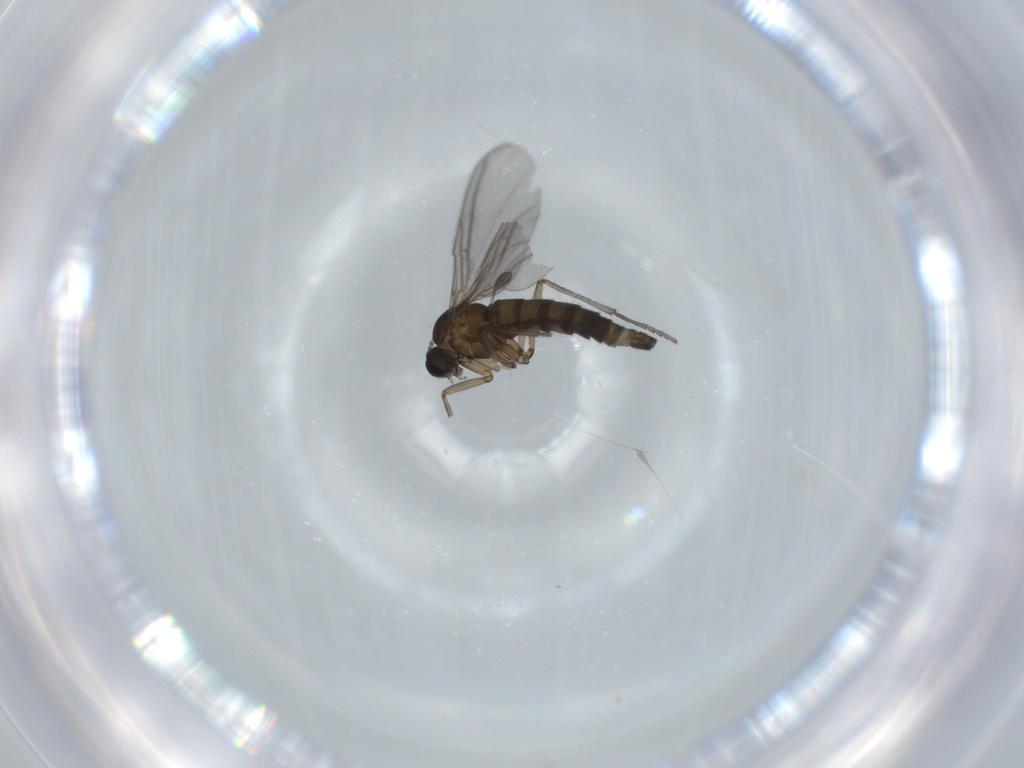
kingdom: Animalia
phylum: Arthropoda
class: Insecta
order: Diptera
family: Sciaridae
